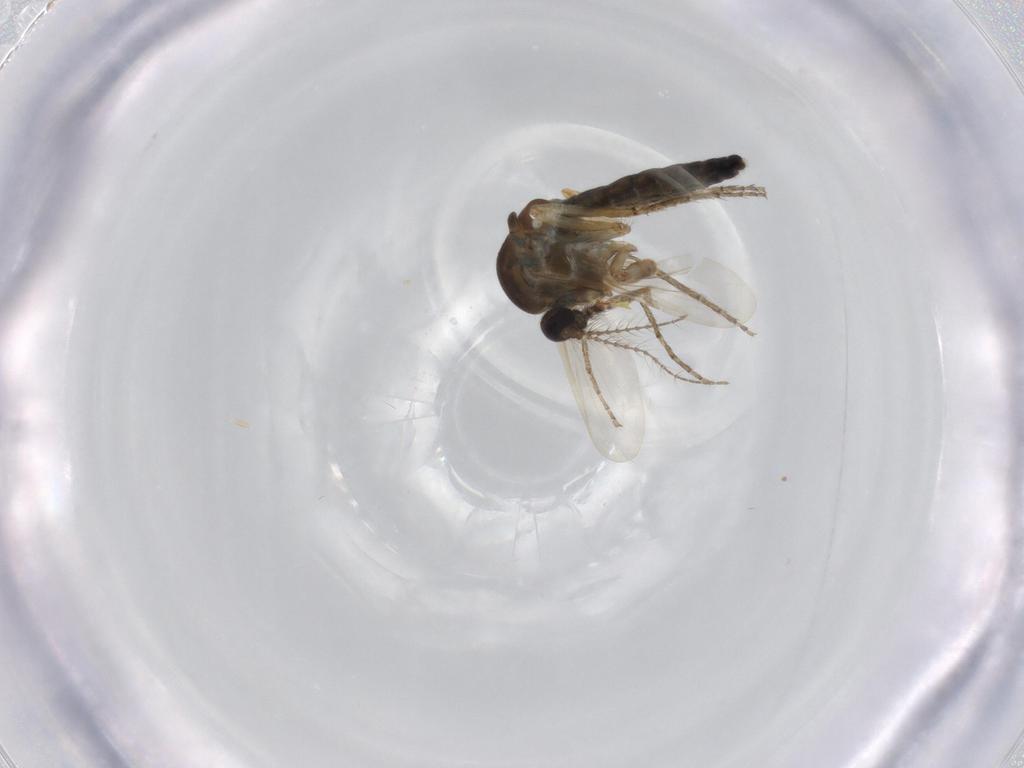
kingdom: Animalia
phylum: Arthropoda
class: Insecta
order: Diptera
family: Ceratopogonidae
